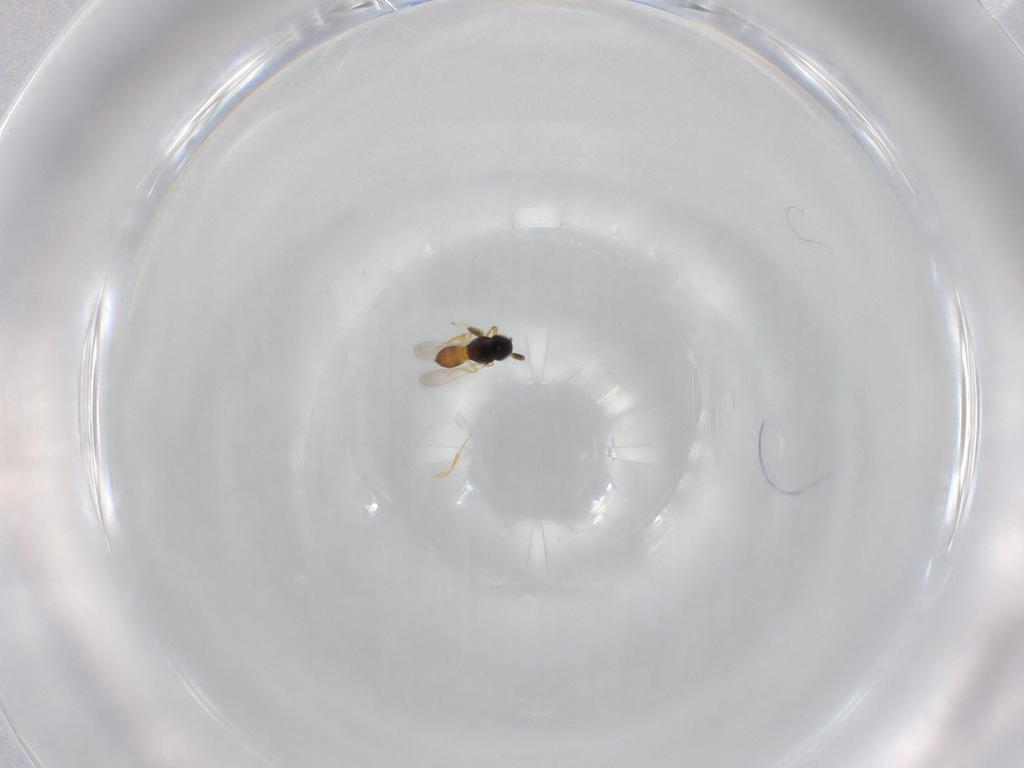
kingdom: Animalia
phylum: Arthropoda
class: Insecta
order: Hymenoptera
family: Scelionidae
